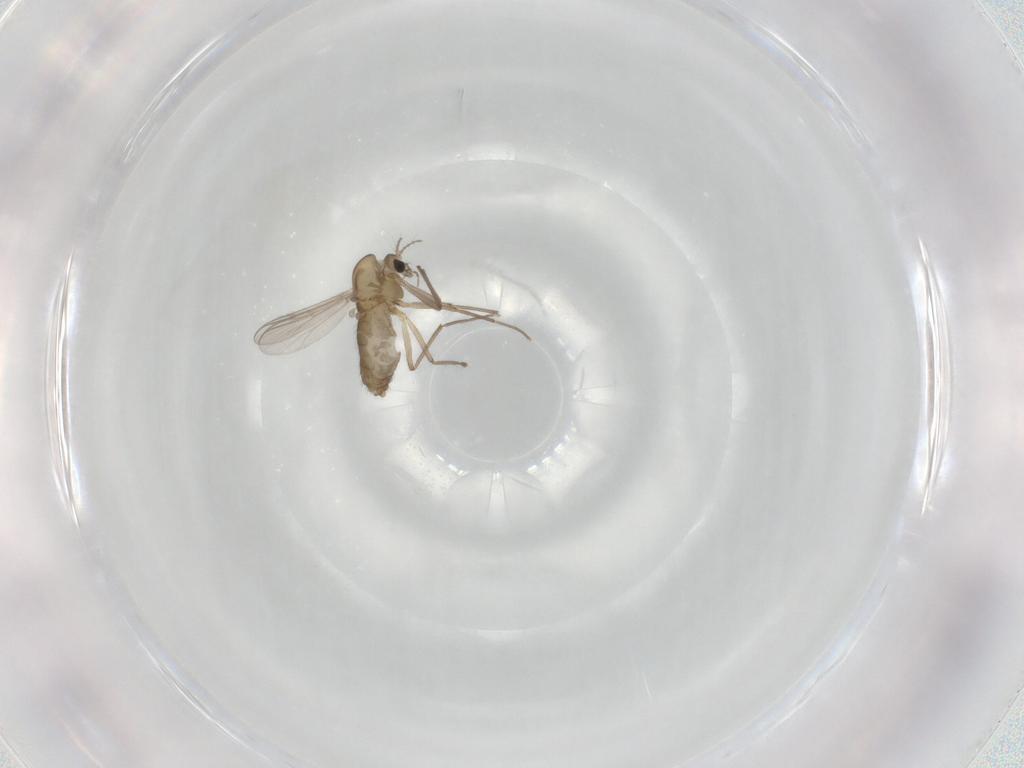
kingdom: Animalia
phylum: Arthropoda
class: Insecta
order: Diptera
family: Chironomidae
